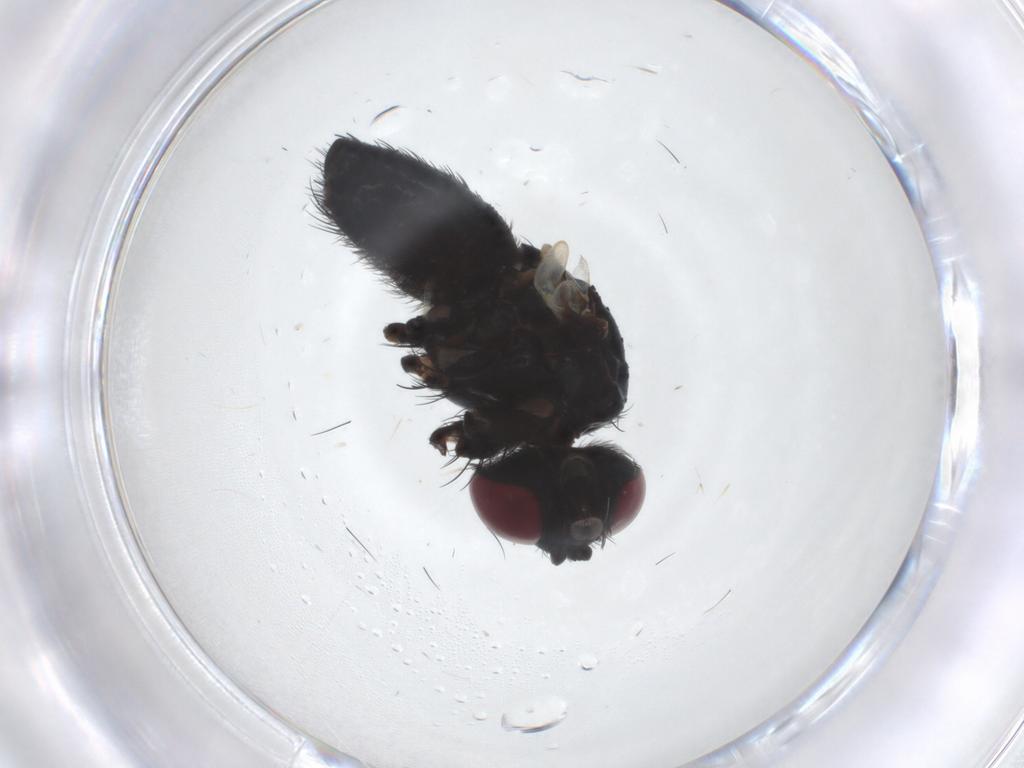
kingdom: Animalia
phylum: Arthropoda
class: Insecta
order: Diptera
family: Calliphoridae
